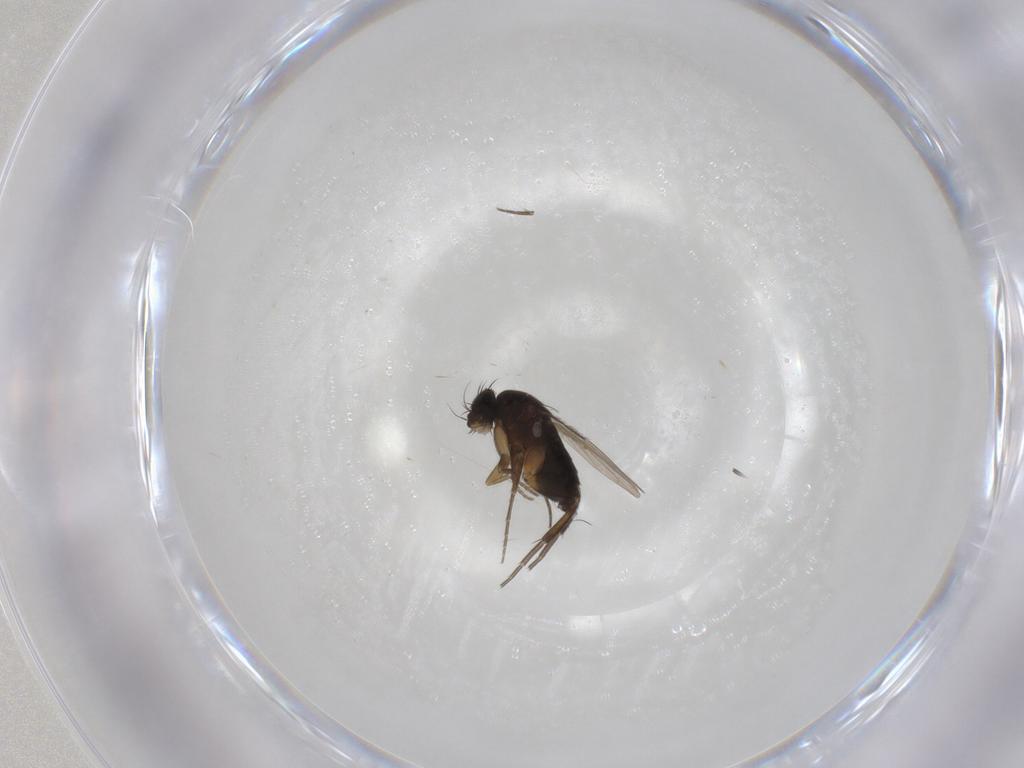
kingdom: Animalia
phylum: Arthropoda
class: Insecta
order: Diptera
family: Phoridae
